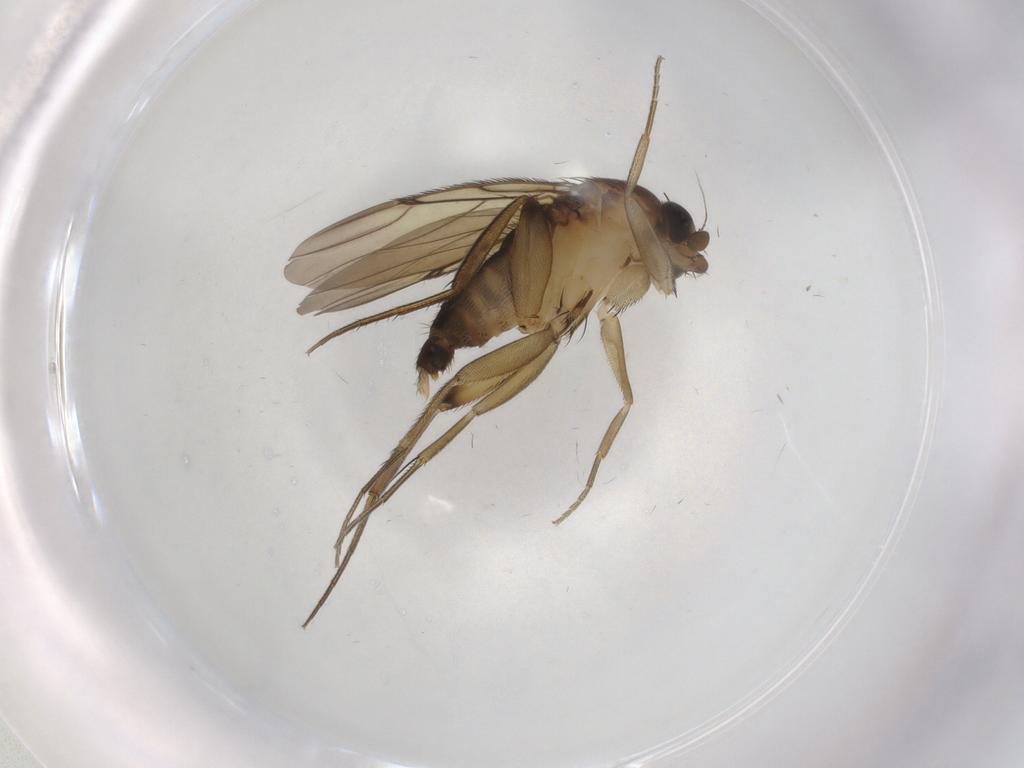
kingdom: Animalia
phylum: Arthropoda
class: Insecta
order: Diptera
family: Phoridae
